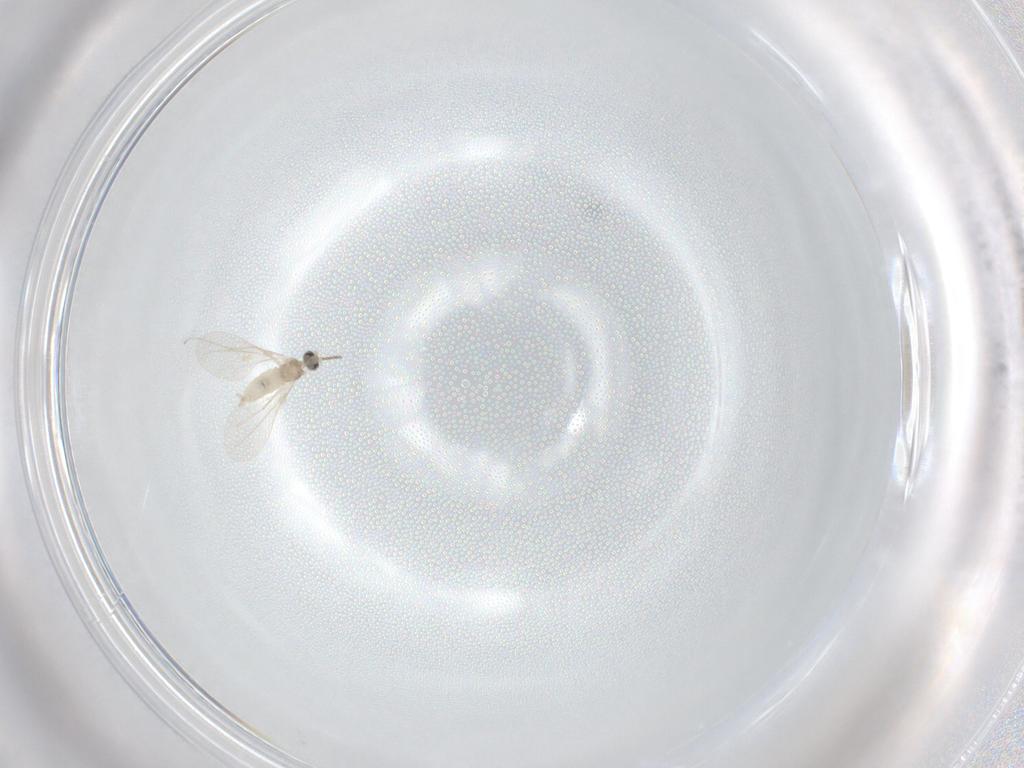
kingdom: Animalia
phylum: Arthropoda
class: Insecta
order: Diptera
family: Cecidomyiidae
